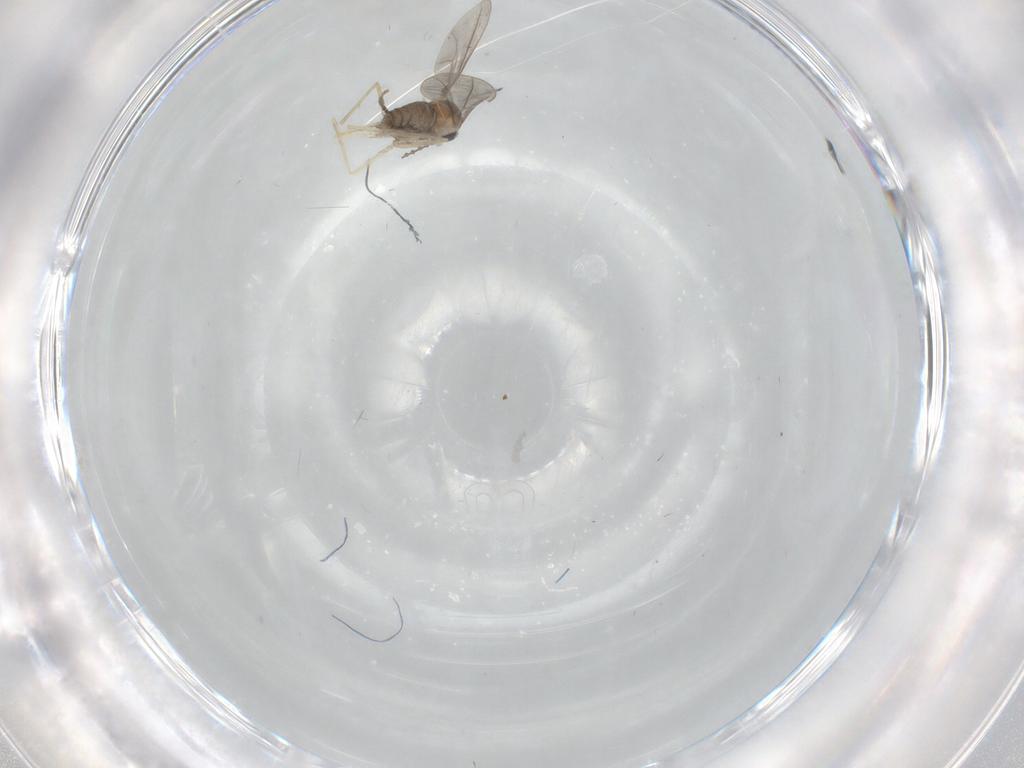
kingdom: Animalia
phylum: Arthropoda
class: Insecta
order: Diptera
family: Cecidomyiidae
